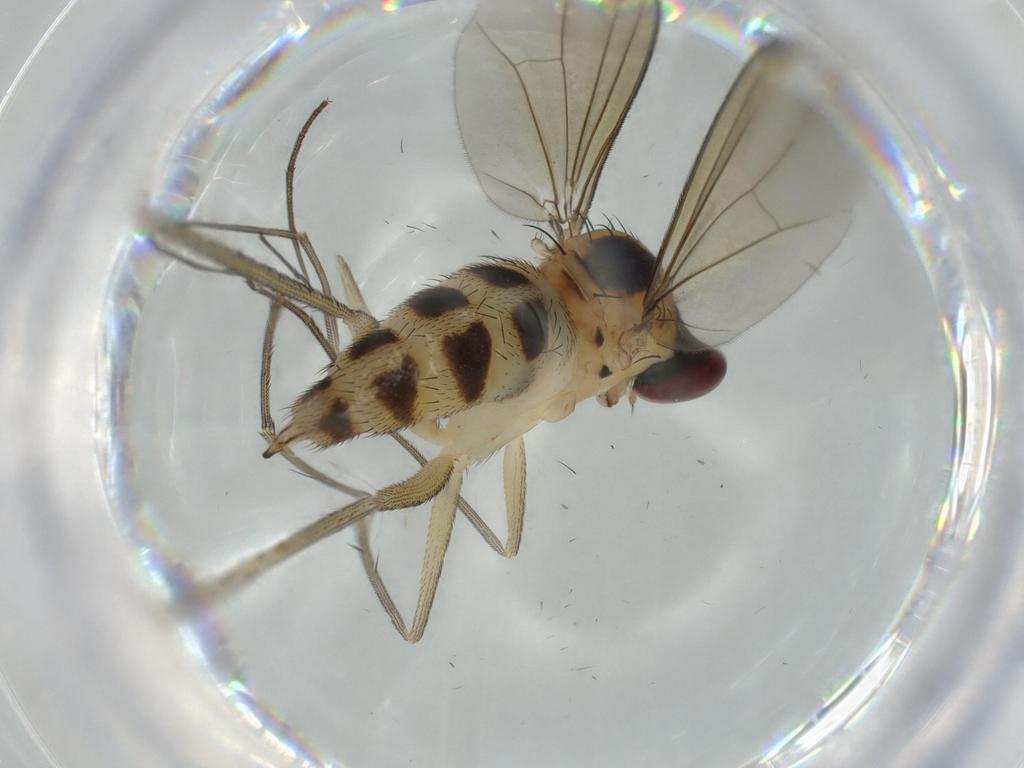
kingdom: Animalia
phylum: Arthropoda
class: Insecta
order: Diptera
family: Dolichopodidae
